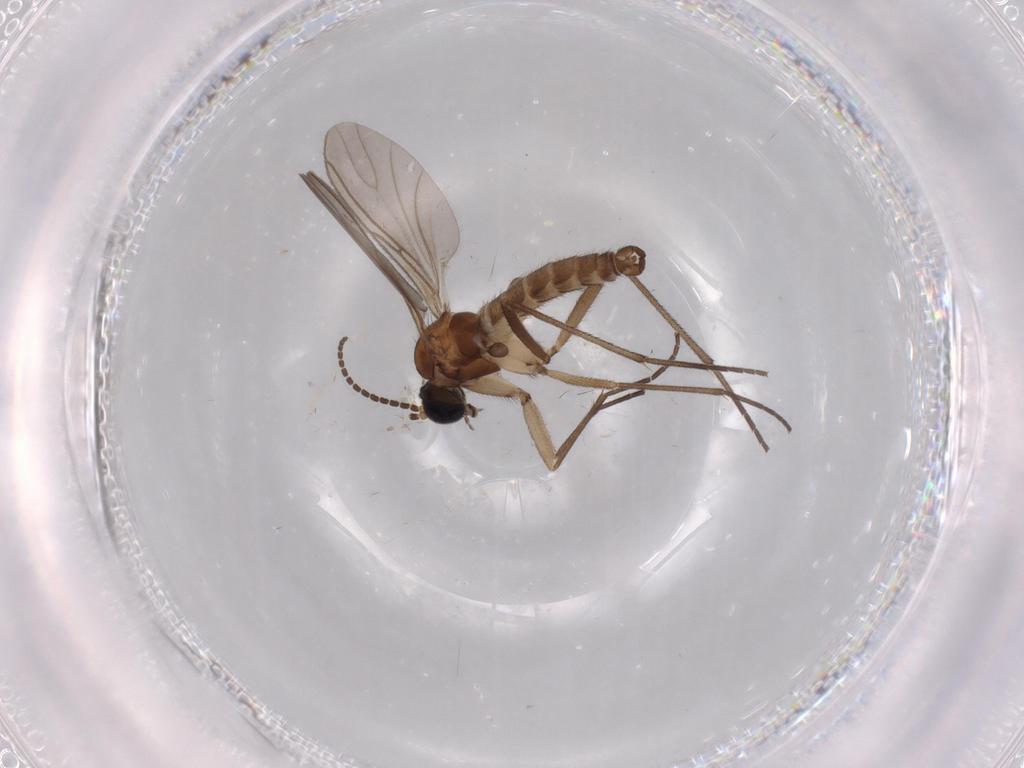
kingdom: Animalia
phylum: Arthropoda
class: Insecta
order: Diptera
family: Sciaridae
